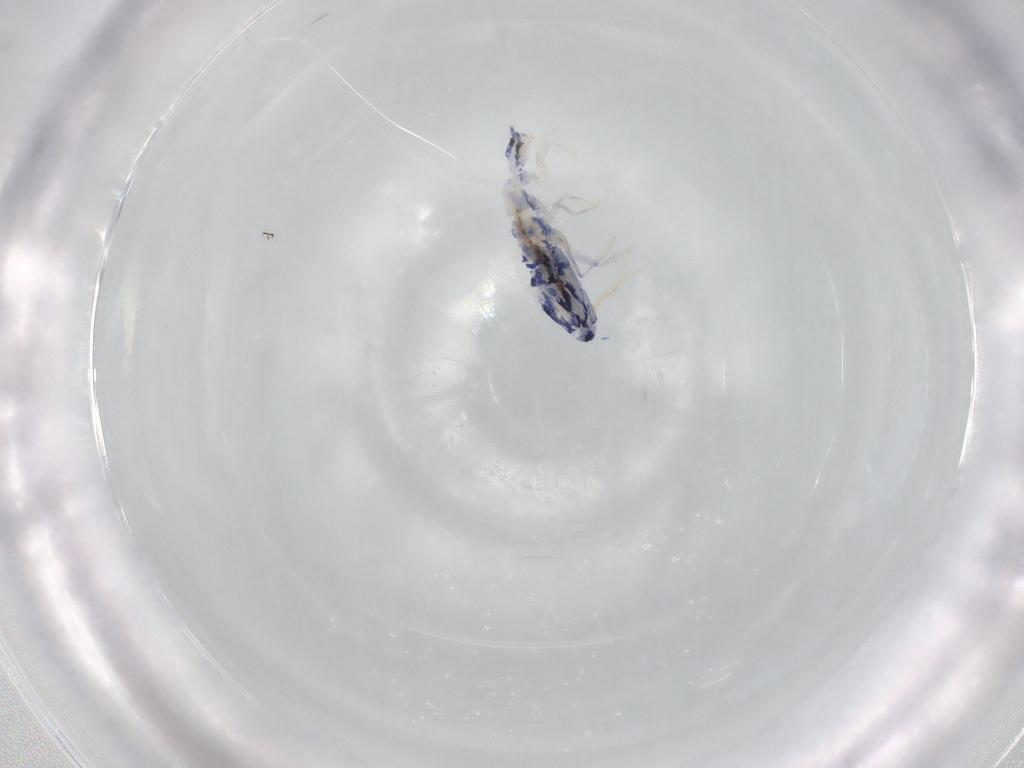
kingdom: Animalia
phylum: Arthropoda
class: Collembola
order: Entomobryomorpha
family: Entomobryidae
